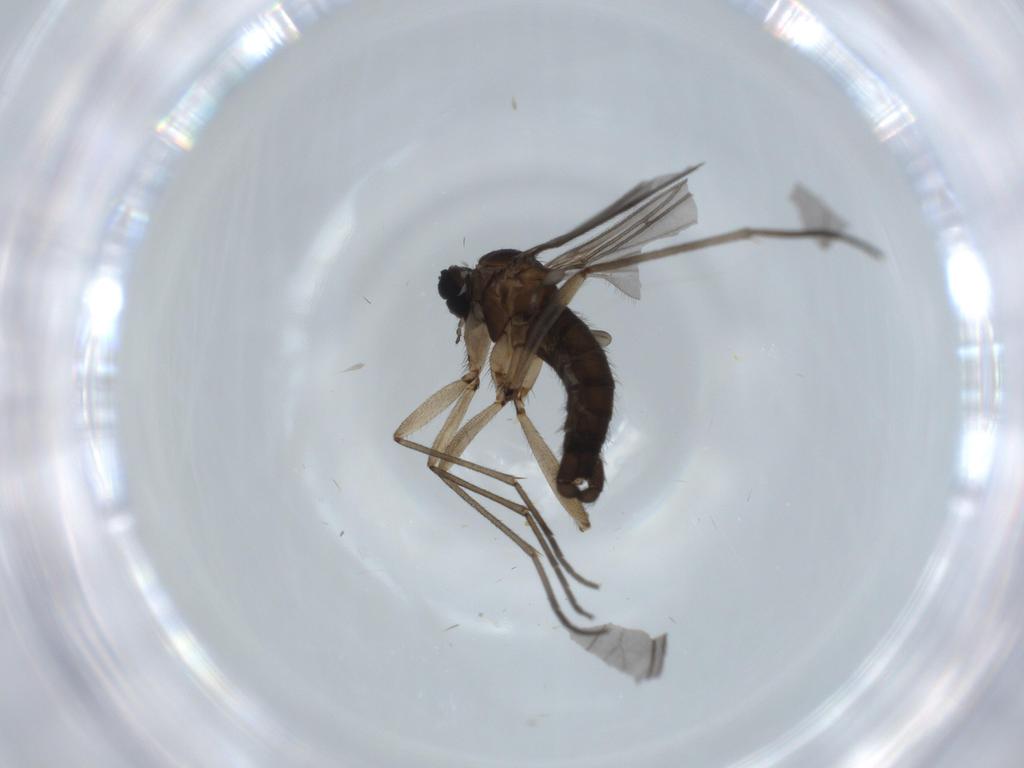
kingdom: Animalia
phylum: Arthropoda
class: Insecta
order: Diptera
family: Sciaridae
